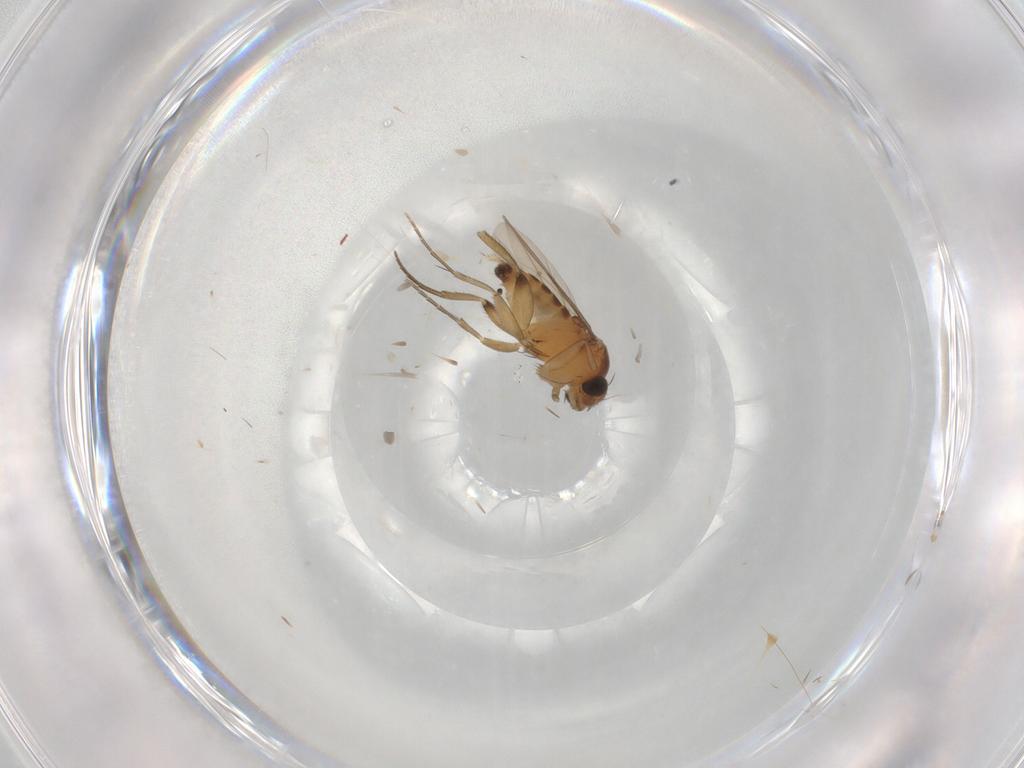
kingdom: Animalia
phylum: Arthropoda
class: Insecta
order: Diptera
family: Phoridae
